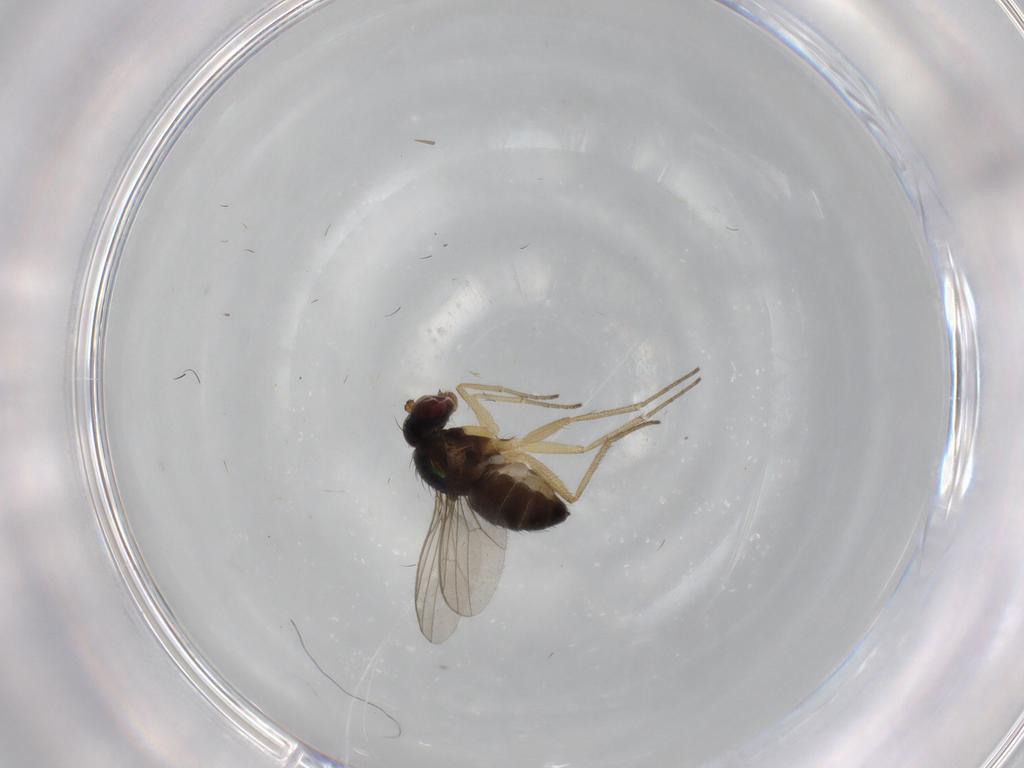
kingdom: Animalia
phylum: Arthropoda
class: Insecta
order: Diptera
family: Dolichopodidae
